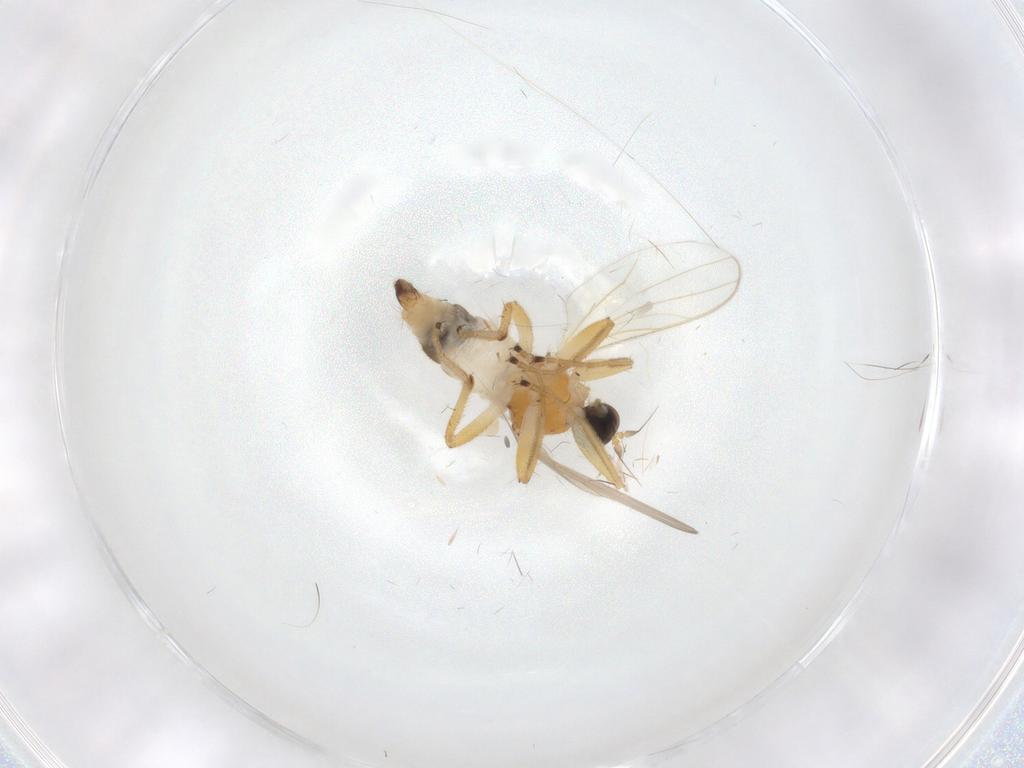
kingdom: Animalia
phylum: Arthropoda
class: Insecta
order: Diptera
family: Hybotidae
